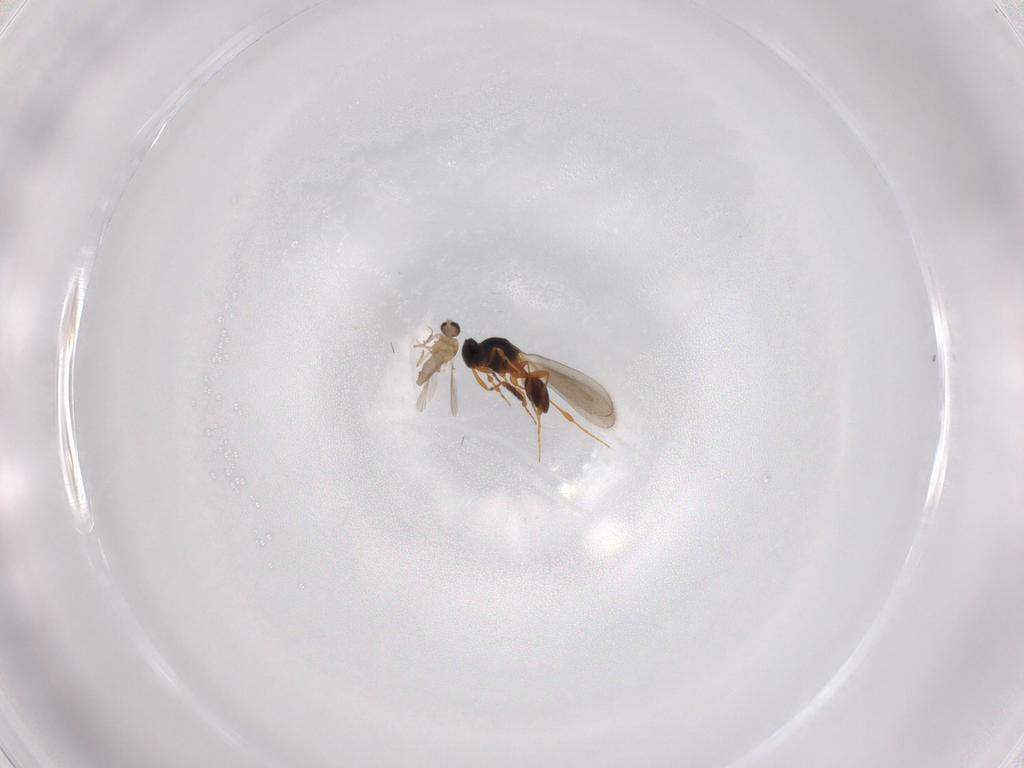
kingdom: Animalia
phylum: Arthropoda
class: Insecta
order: Diptera
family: Ceratopogonidae
